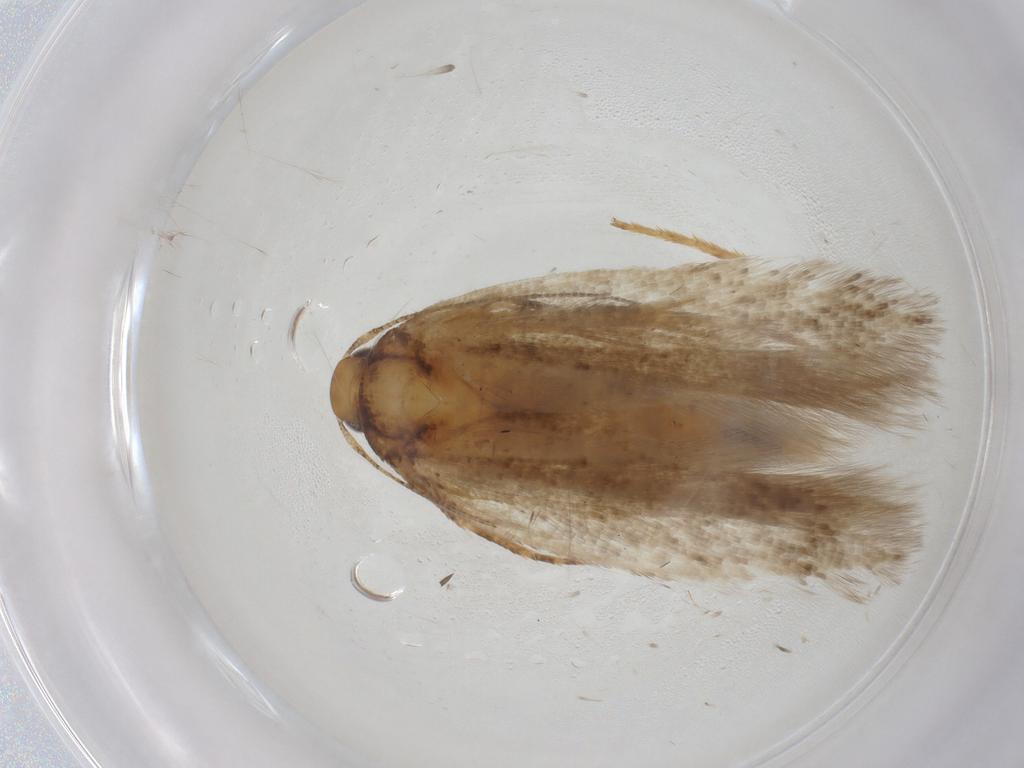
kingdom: Animalia
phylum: Arthropoda
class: Insecta
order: Lepidoptera
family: Gelechiidae
